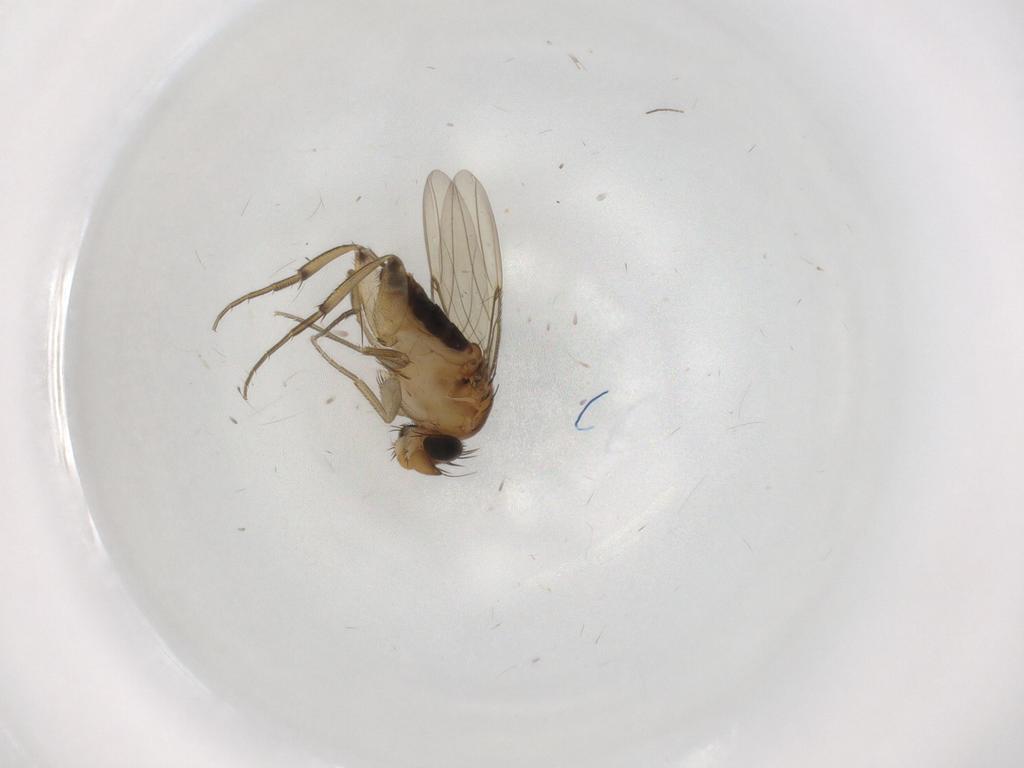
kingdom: Animalia
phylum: Arthropoda
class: Insecta
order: Diptera
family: Phoridae
